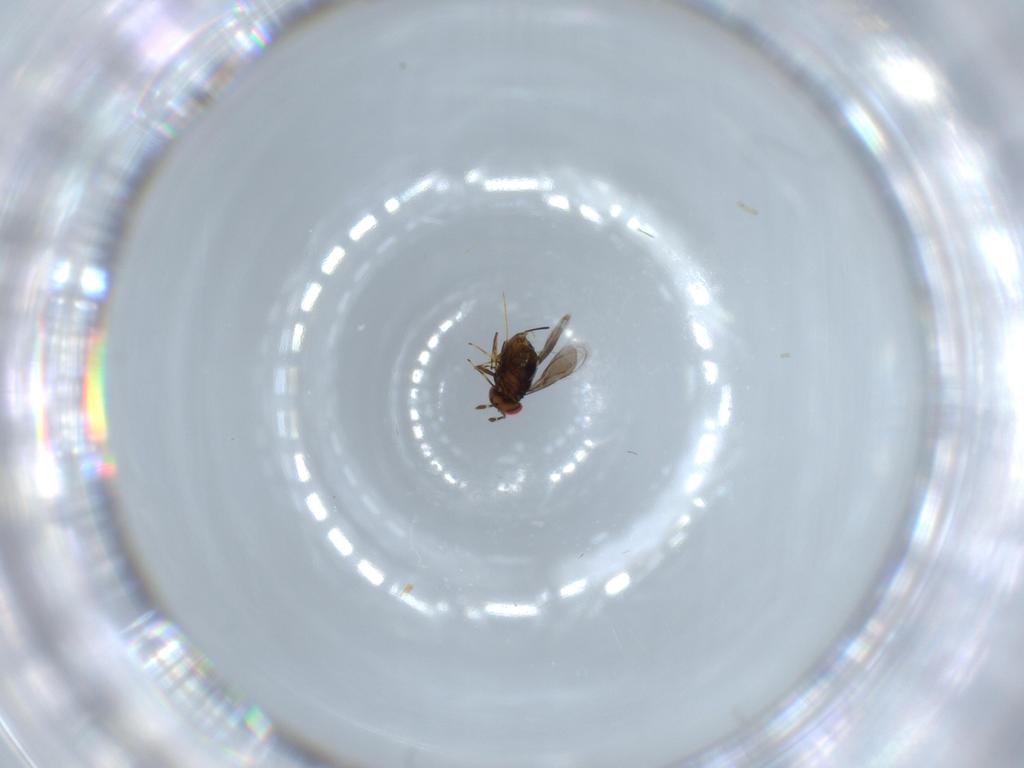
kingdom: Animalia
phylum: Arthropoda
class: Insecta
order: Hymenoptera
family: Azotidae
